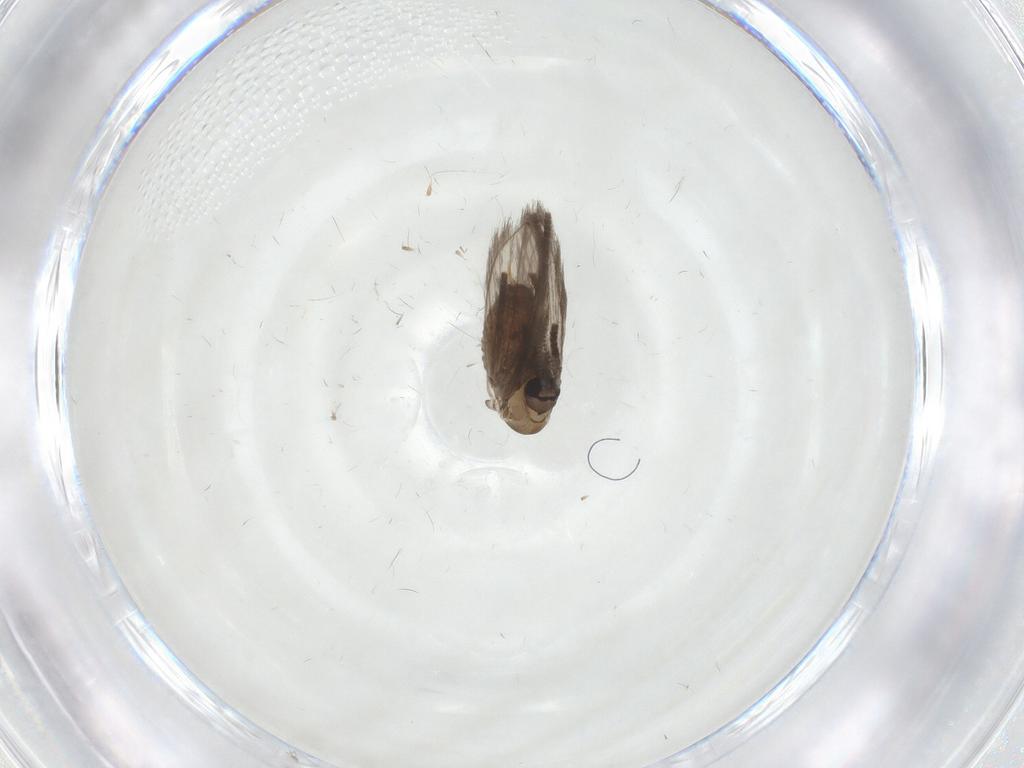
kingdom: Animalia
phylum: Arthropoda
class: Insecta
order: Diptera
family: Psychodidae
